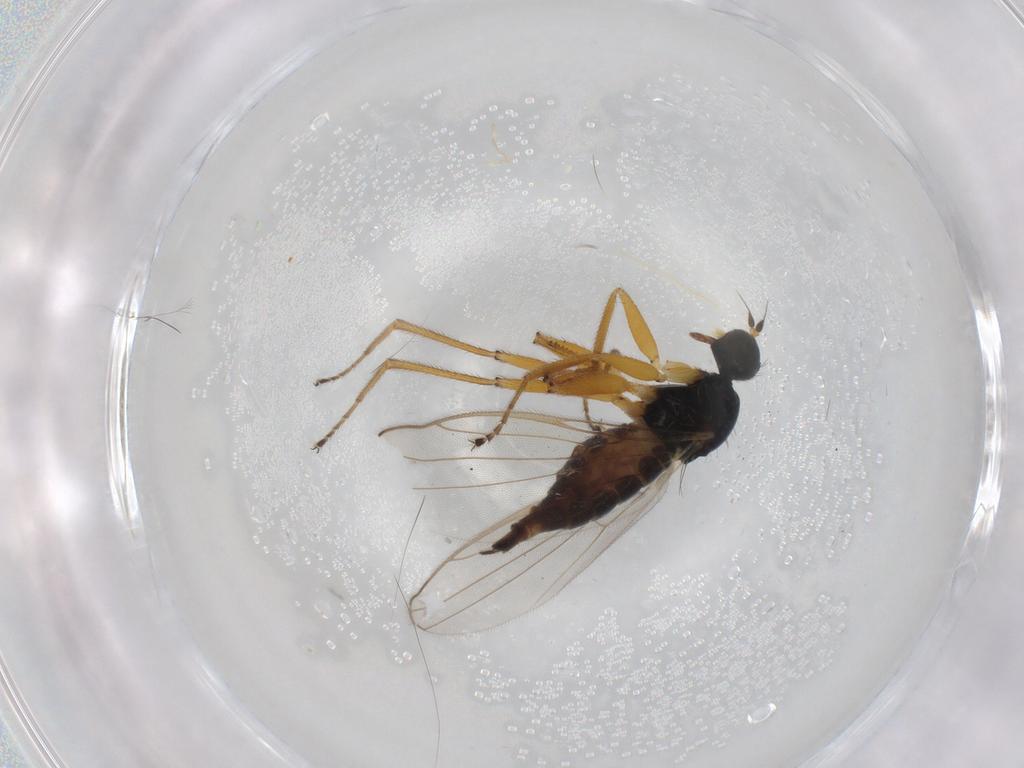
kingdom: Animalia
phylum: Arthropoda
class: Insecta
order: Diptera
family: Hybotidae
